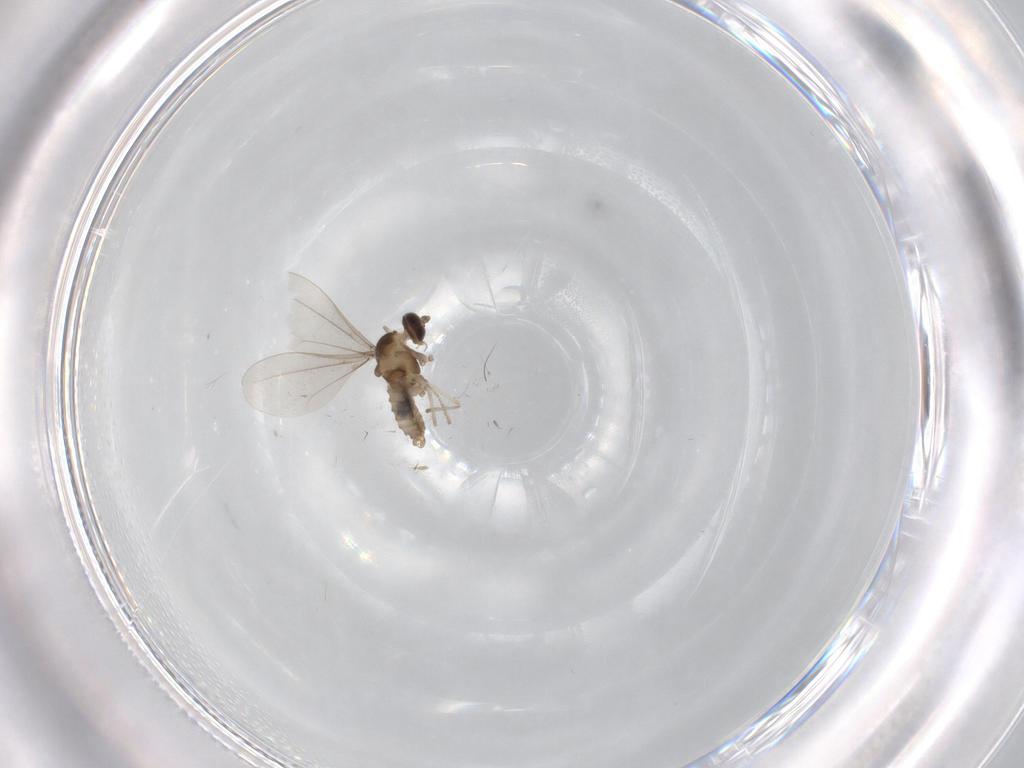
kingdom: Animalia
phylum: Arthropoda
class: Insecta
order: Diptera
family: Cecidomyiidae
